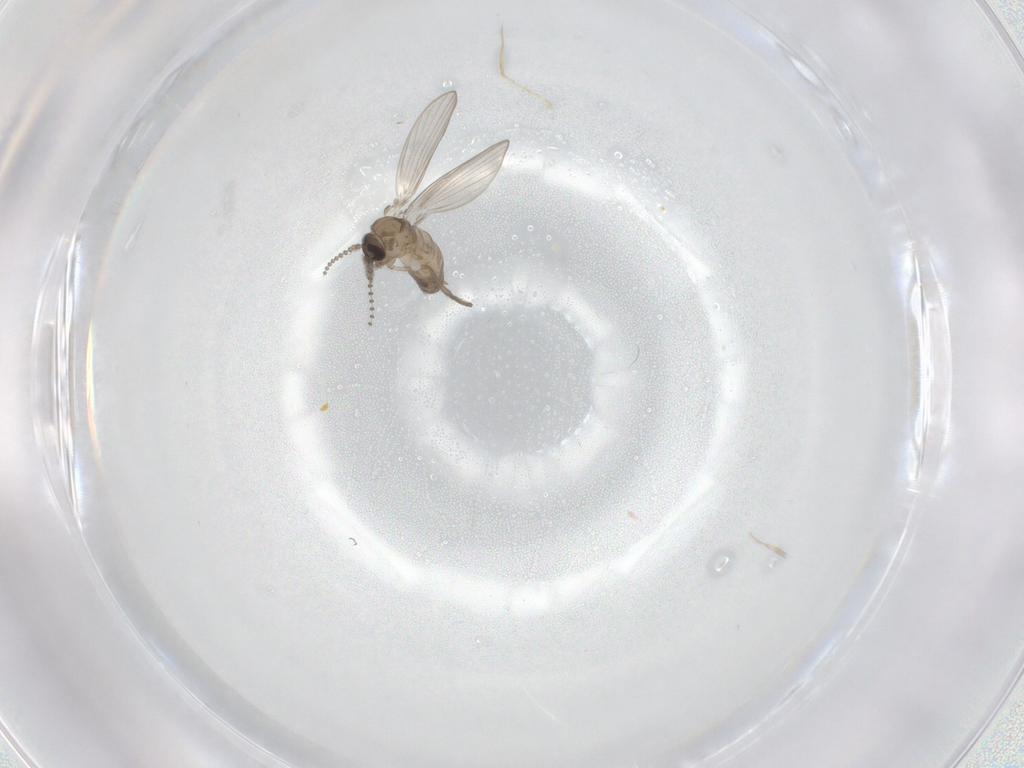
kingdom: Animalia
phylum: Arthropoda
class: Insecta
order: Diptera
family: Psychodidae
